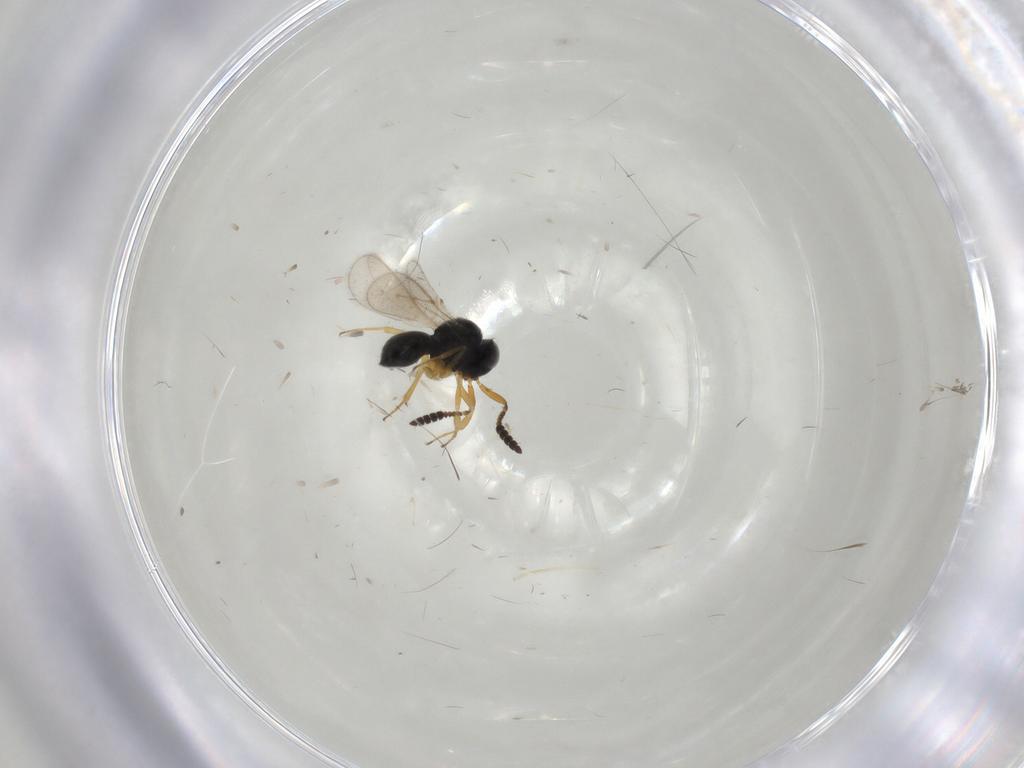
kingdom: Animalia
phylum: Arthropoda
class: Insecta
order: Hymenoptera
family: Scelionidae
